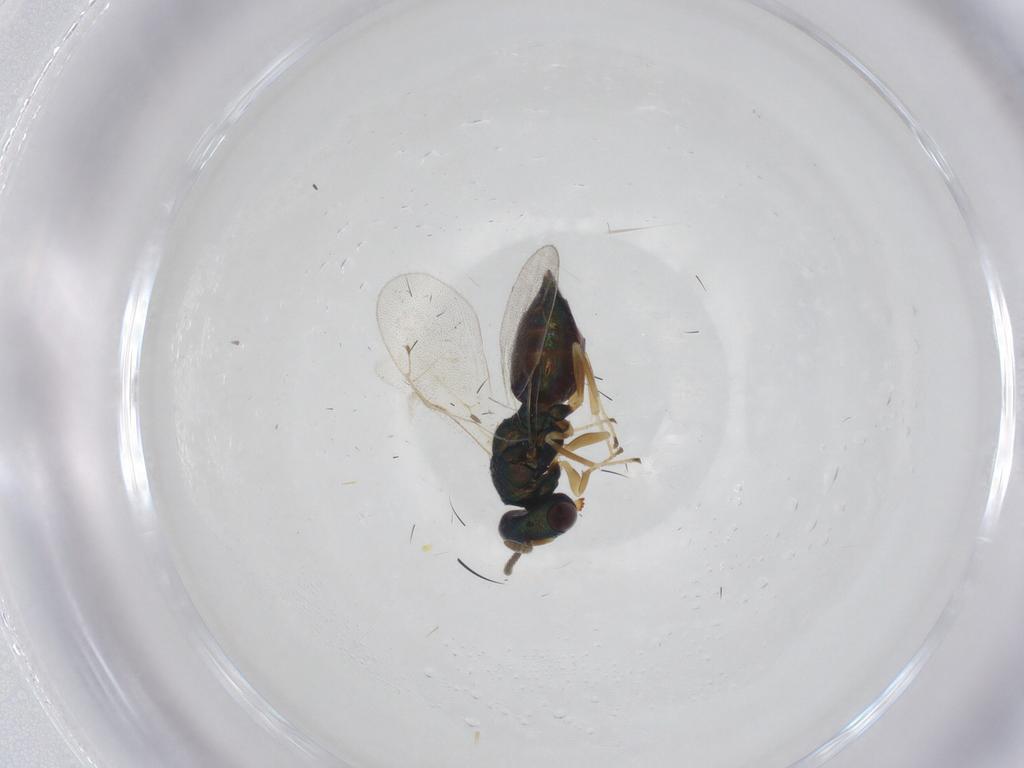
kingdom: Animalia
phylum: Arthropoda
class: Insecta
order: Hymenoptera
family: Pteromalidae
